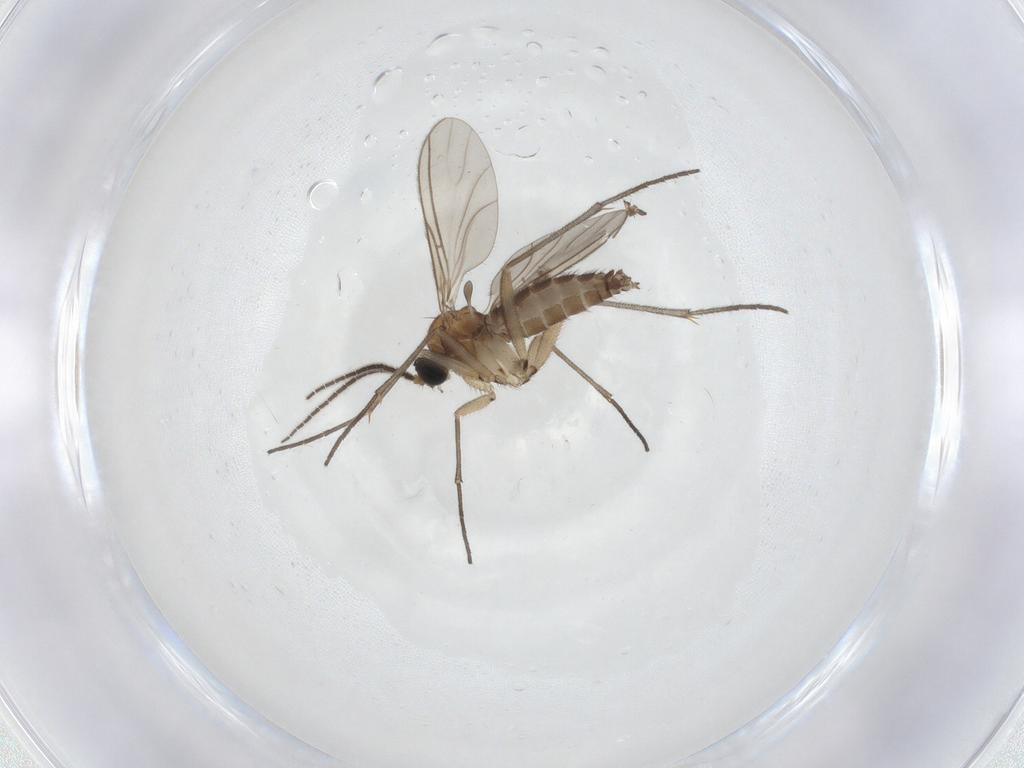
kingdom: Animalia
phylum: Arthropoda
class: Insecta
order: Diptera
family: Sciaridae
